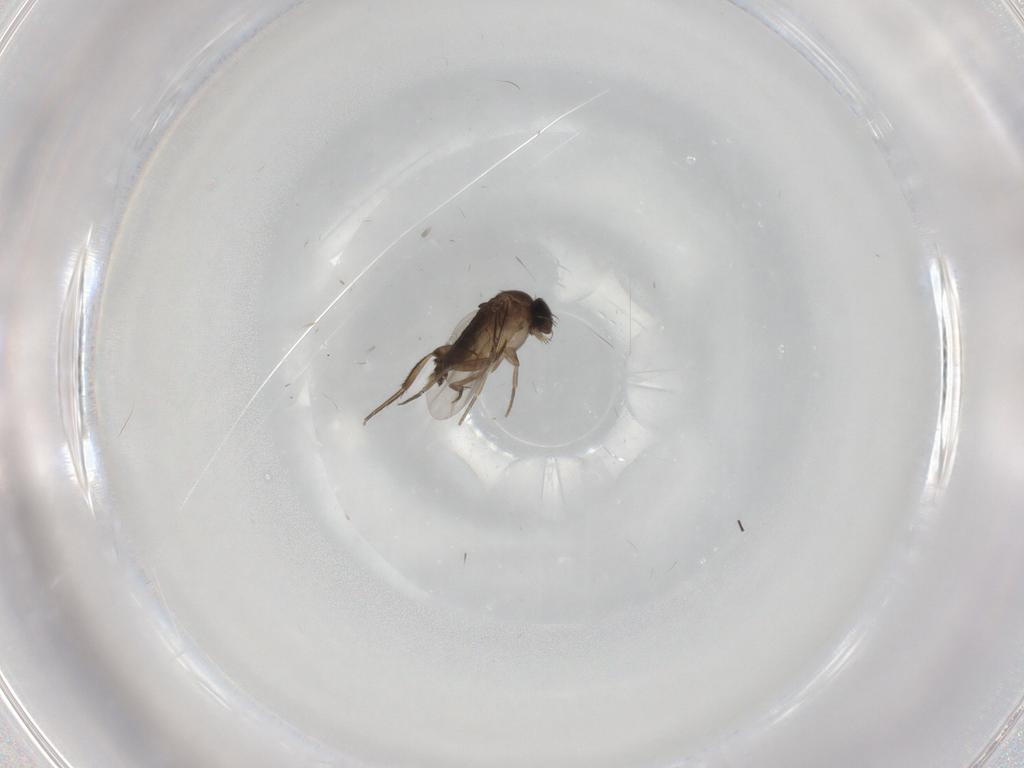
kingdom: Animalia
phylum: Arthropoda
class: Insecta
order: Diptera
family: Phoridae
